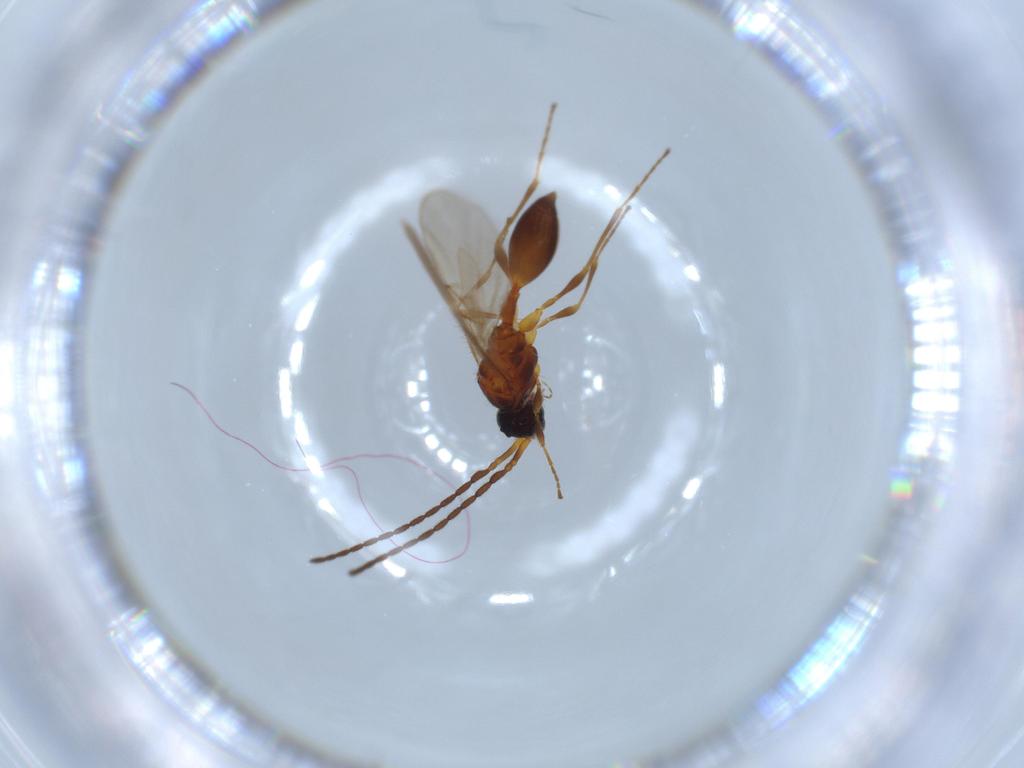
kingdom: Animalia
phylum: Arthropoda
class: Insecta
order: Hymenoptera
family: Diapriidae
